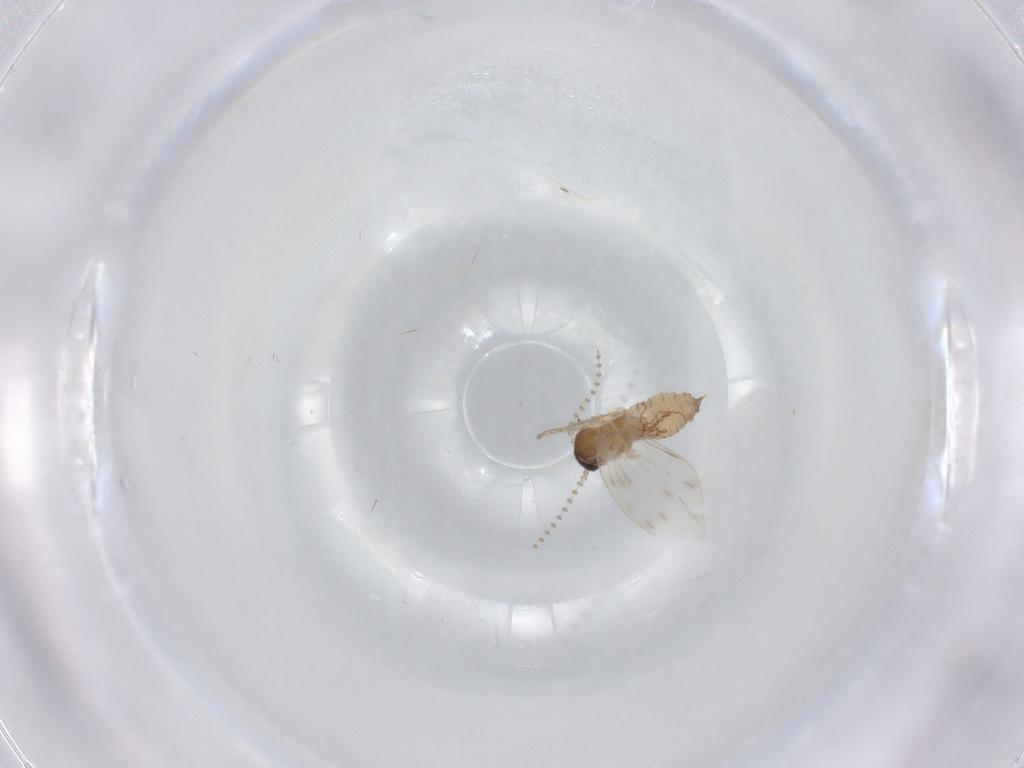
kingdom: Animalia
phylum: Arthropoda
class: Insecta
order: Diptera
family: Psychodidae
